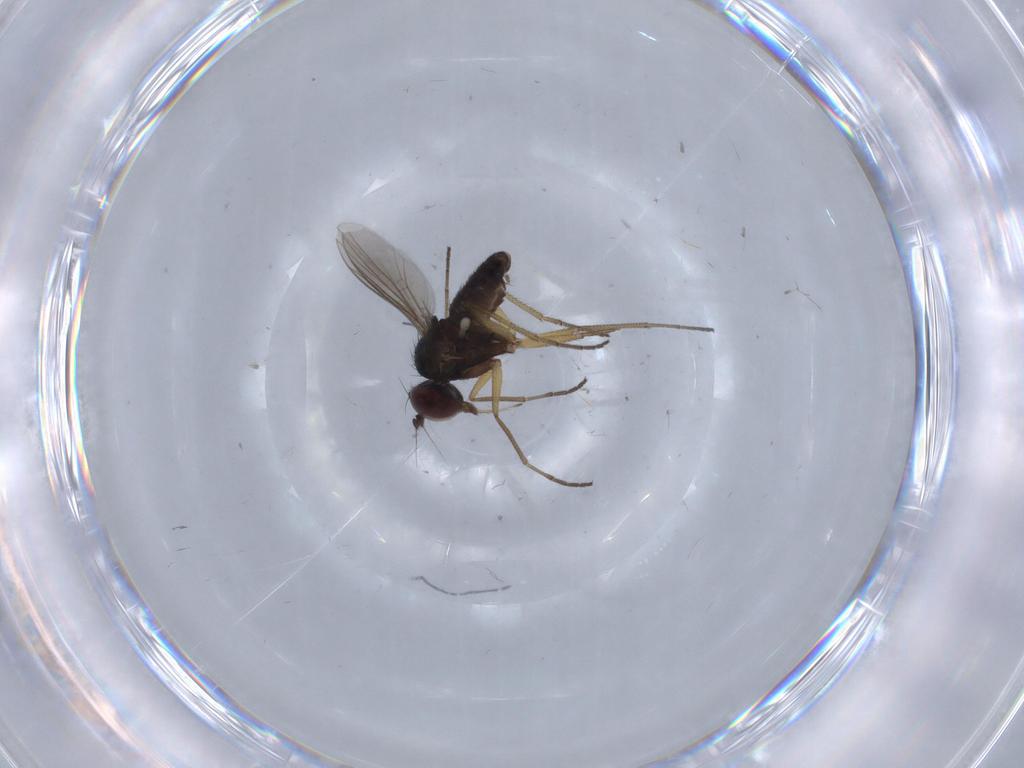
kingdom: Animalia
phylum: Arthropoda
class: Insecta
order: Diptera
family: Dolichopodidae
